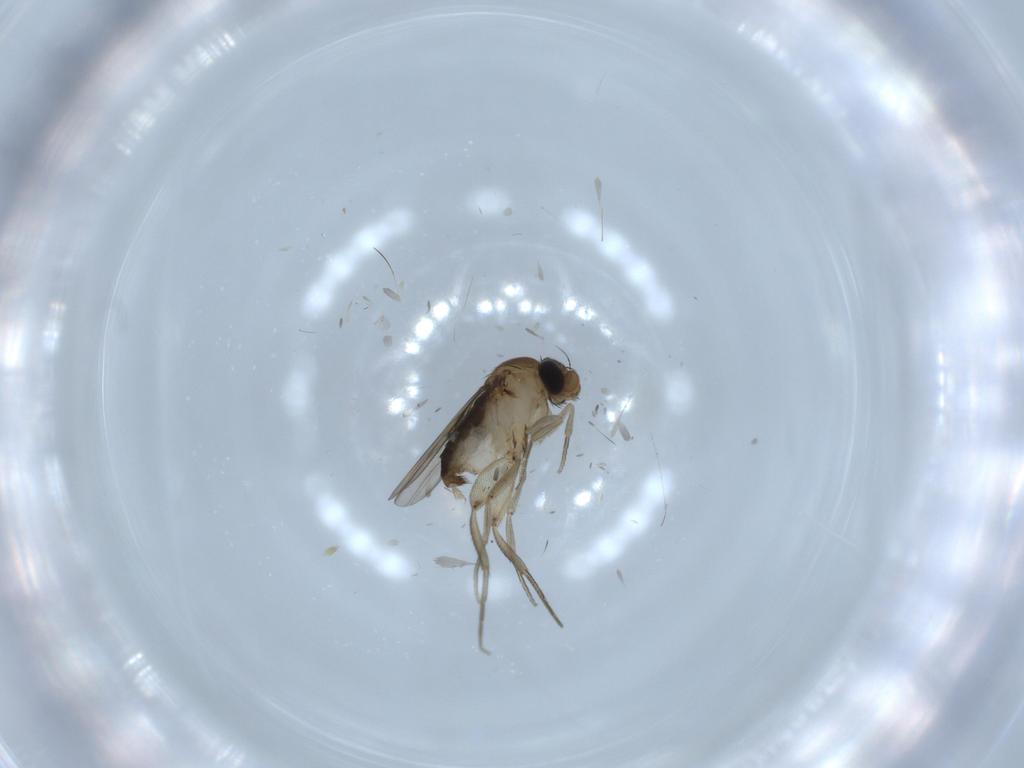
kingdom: Animalia
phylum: Arthropoda
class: Insecta
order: Diptera
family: Phoridae
